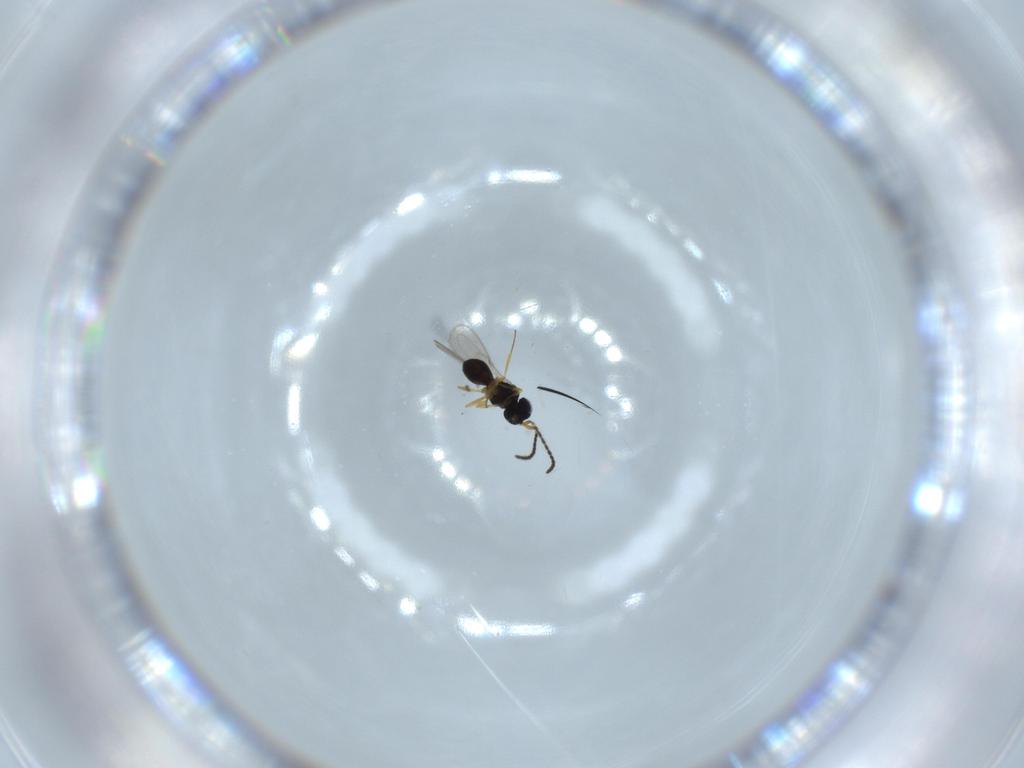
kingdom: Animalia
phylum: Arthropoda
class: Insecta
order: Hymenoptera
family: Scelionidae
